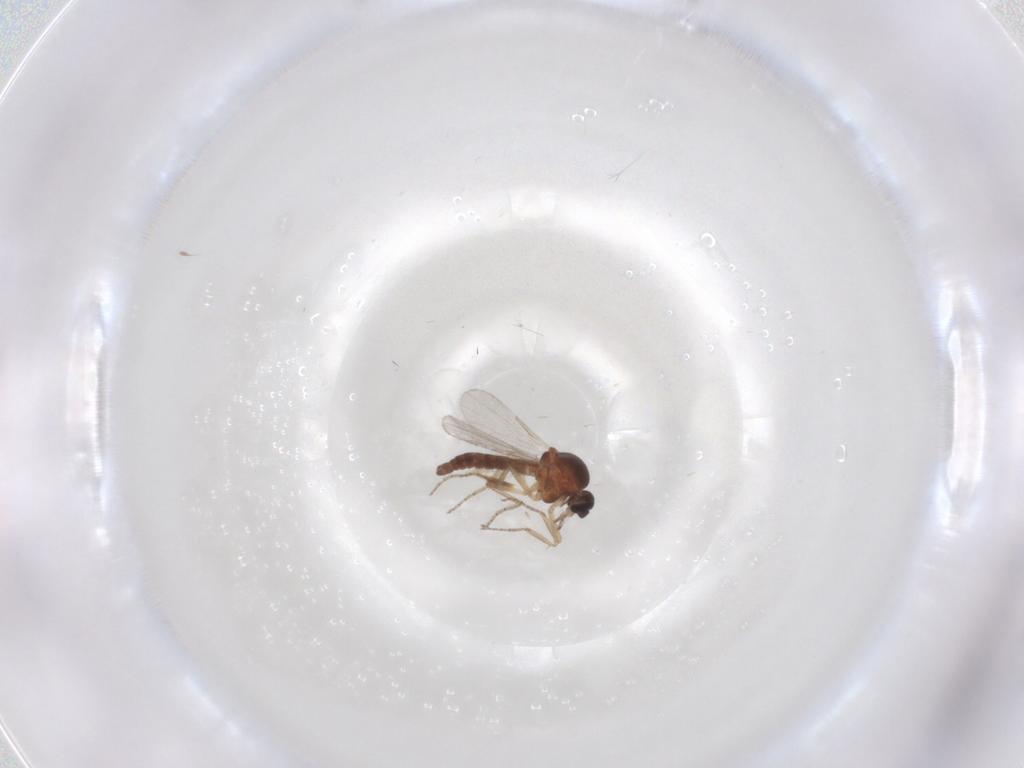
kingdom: Animalia
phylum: Arthropoda
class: Insecta
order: Diptera
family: Ceratopogonidae
